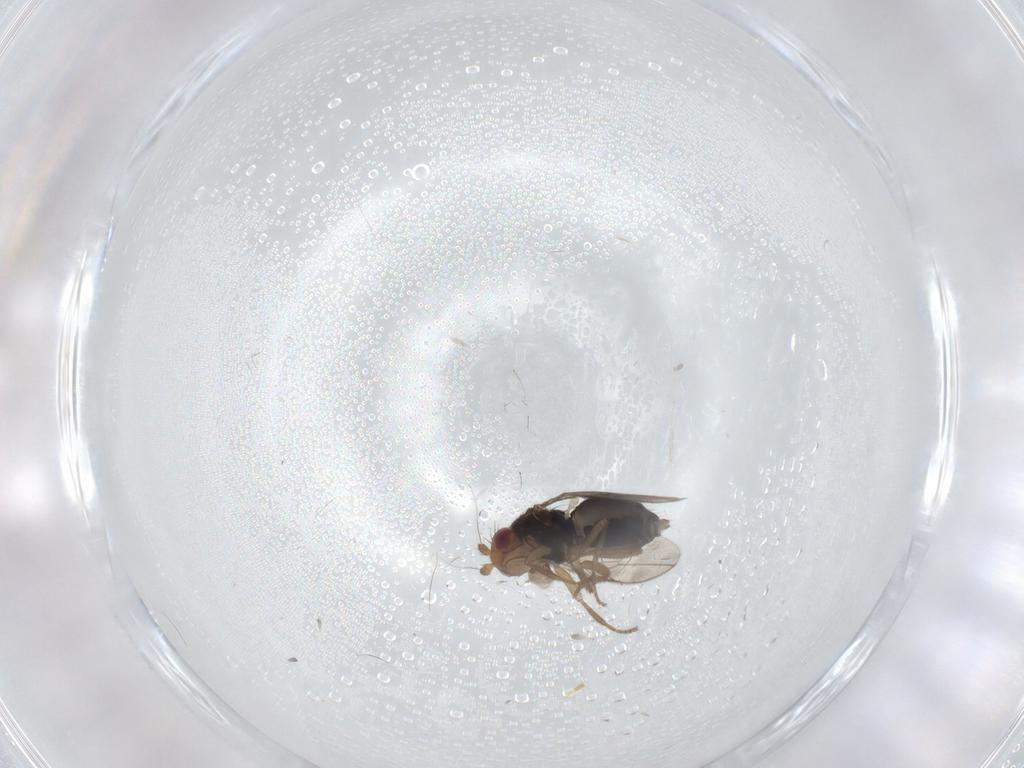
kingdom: Animalia
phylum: Arthropoda
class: Insecta
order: Diptera
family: Sphaeroceridae
